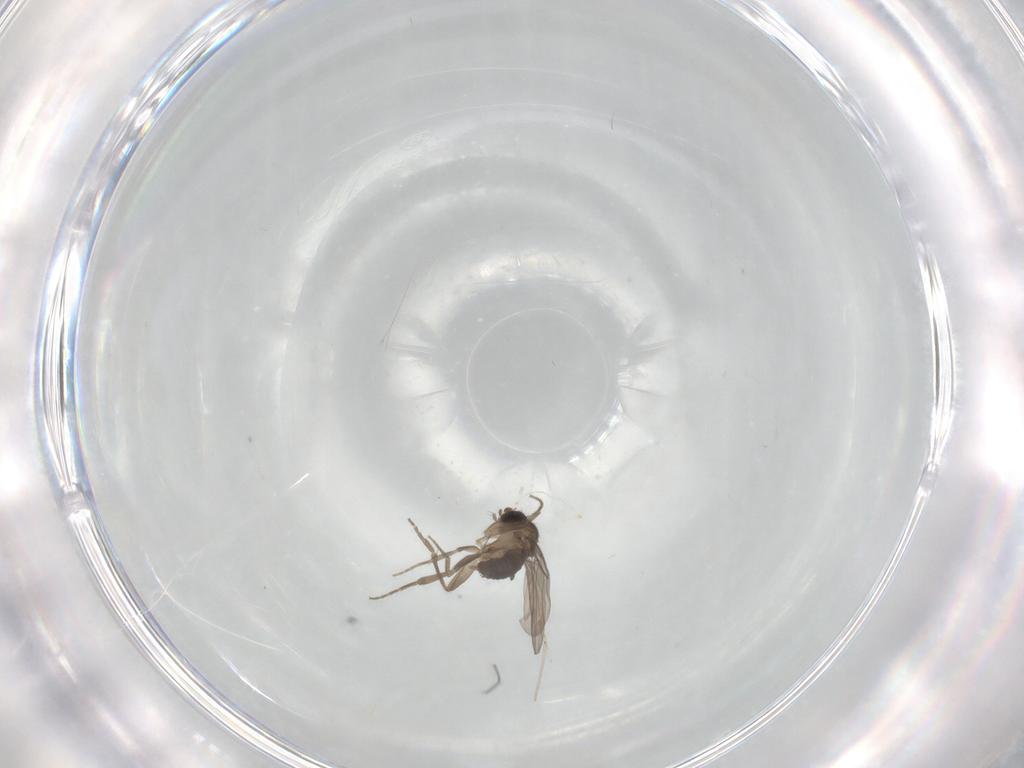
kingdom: Animalia
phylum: Arthropoda
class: Insecta
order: Diptera
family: Phoridae
